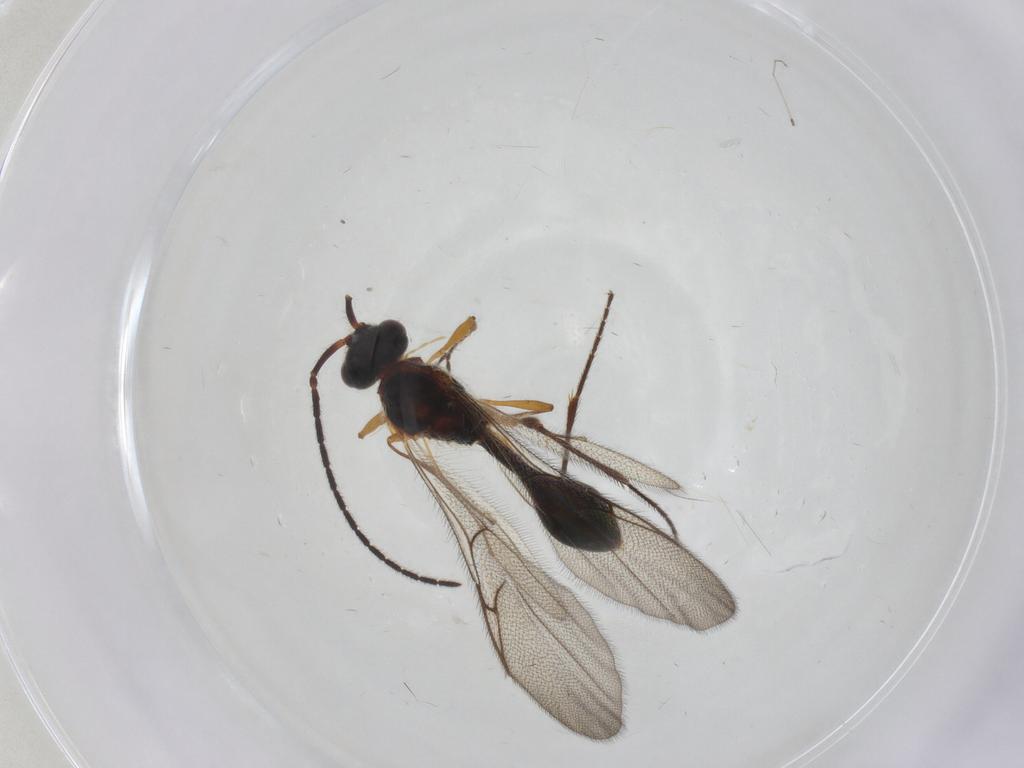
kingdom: Animalia
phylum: Arthropoda
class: Insecta
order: Hymenoptera
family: Diapriidae
